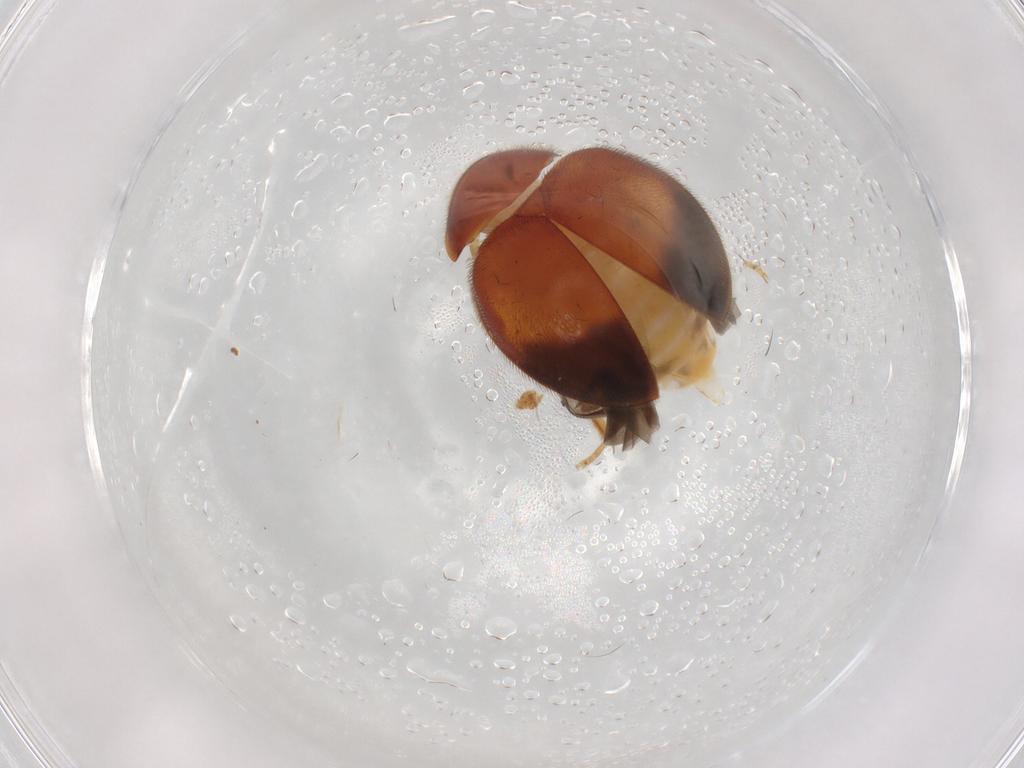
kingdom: Animalia
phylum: Arthropoda
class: Insecta
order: Coleoptera
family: Scirtidae
